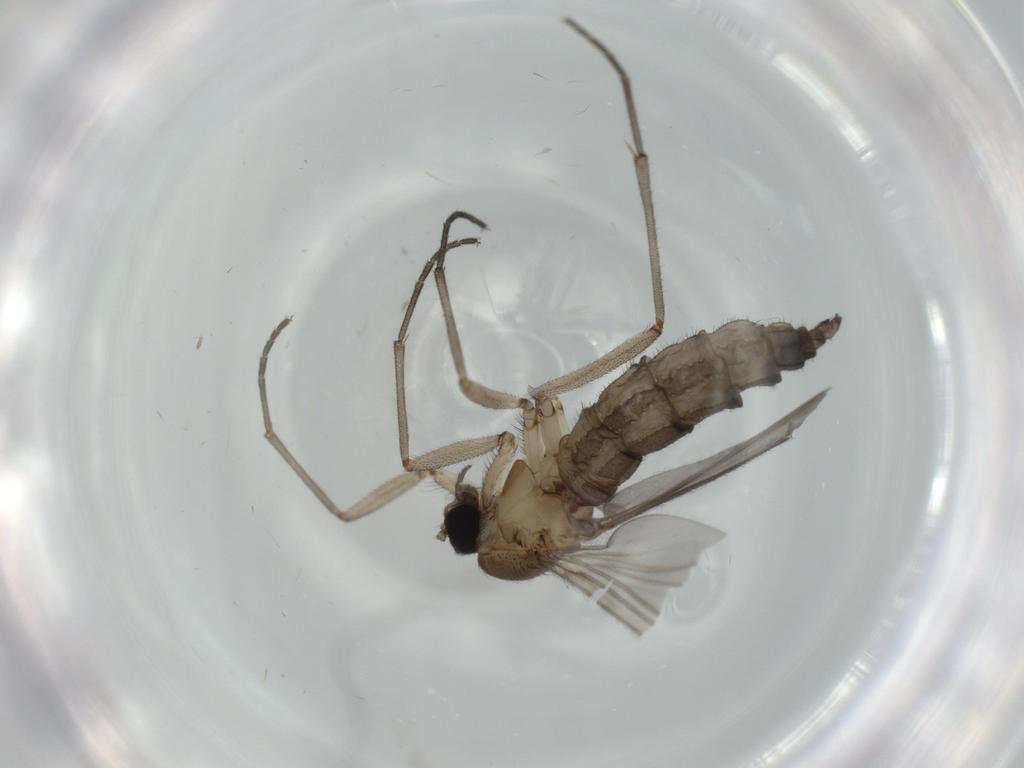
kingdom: Animalia
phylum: Arthropoda
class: Insecta
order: Diptera
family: Sciaridae
